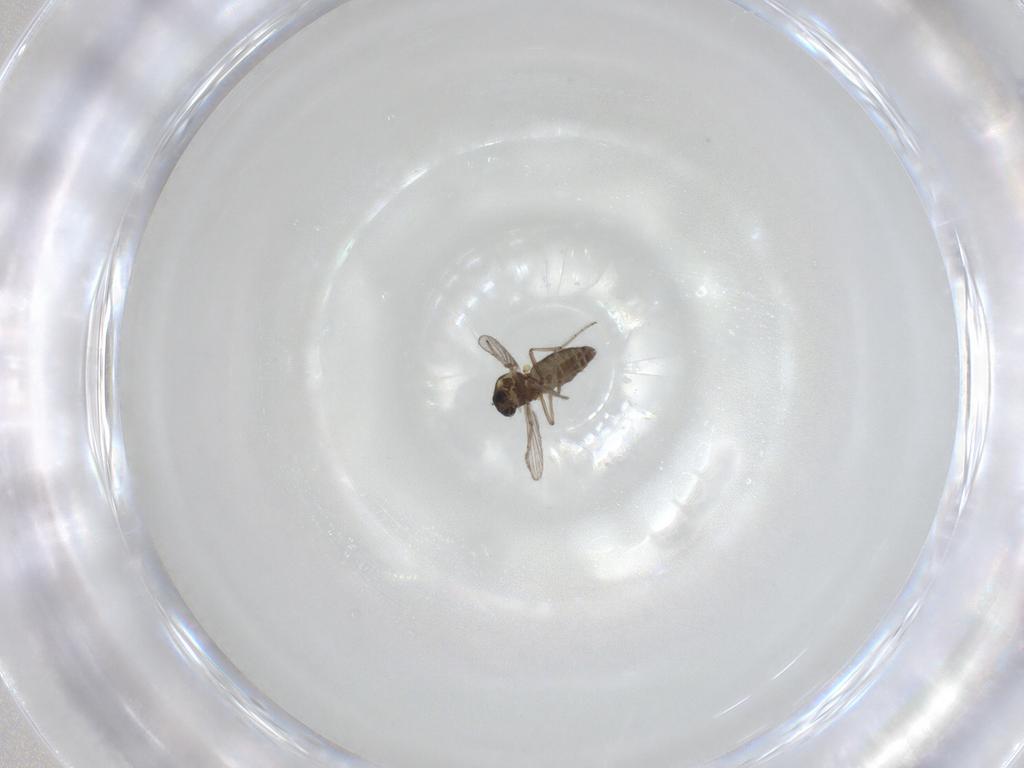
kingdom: Animalia
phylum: Arthropoda
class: Insecta
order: Diptera
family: Ceratopogonidae
